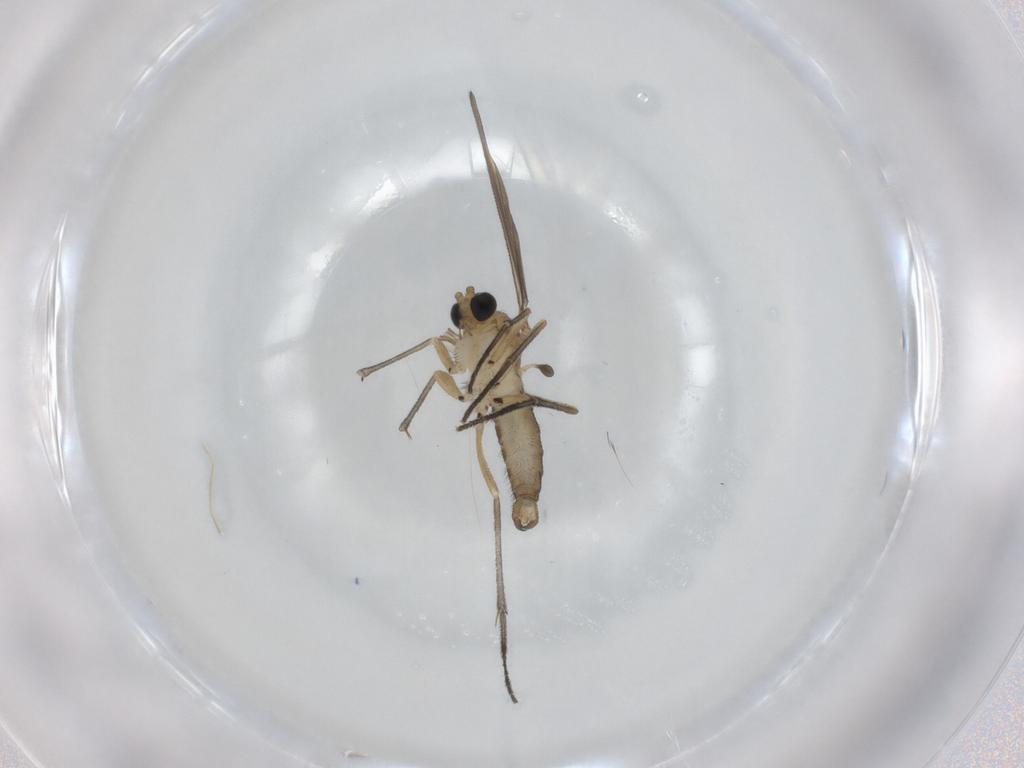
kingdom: Animalia
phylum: Arthropoda
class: Insecta
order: Diptera
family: Sciaridae
